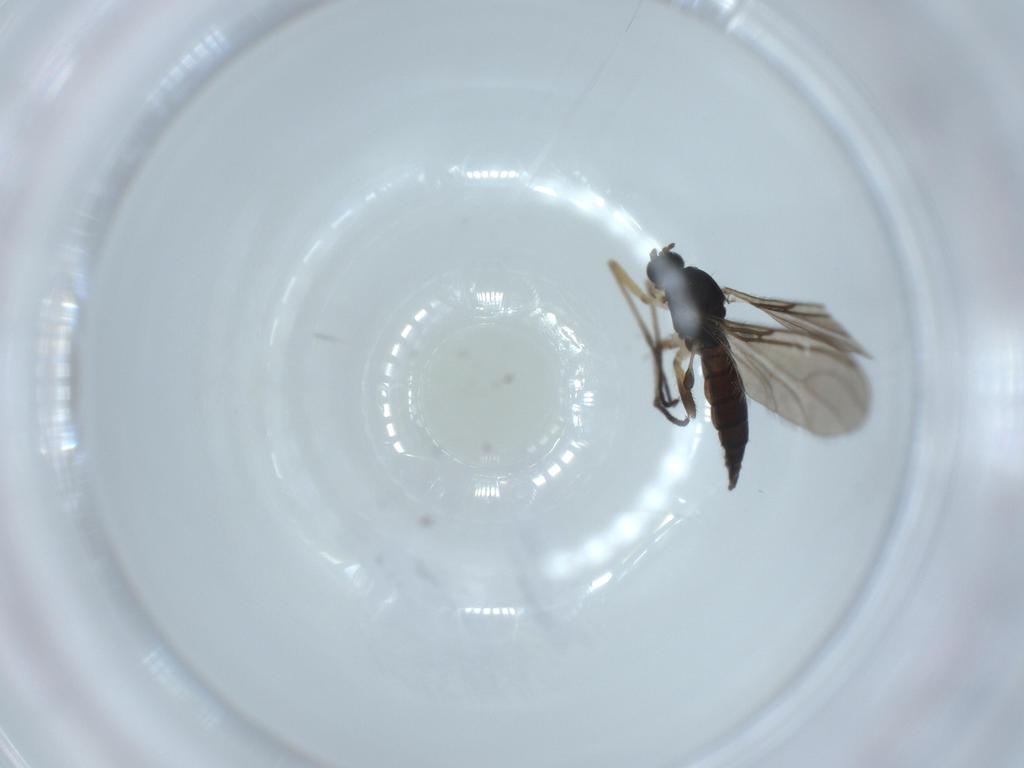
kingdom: Animalia
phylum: Arthropoda
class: Insecta
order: Diptera
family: Sciaridae
